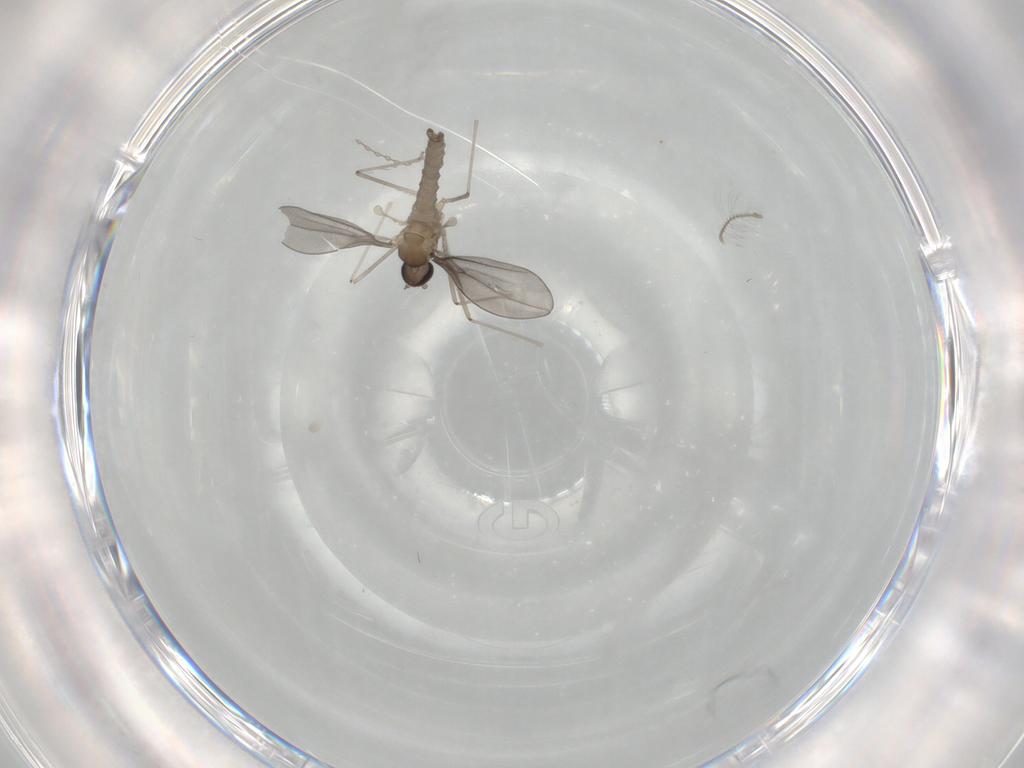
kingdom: Animalia
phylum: Arthropoda
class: Insecta
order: Diptera
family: Cecidomyiidae
